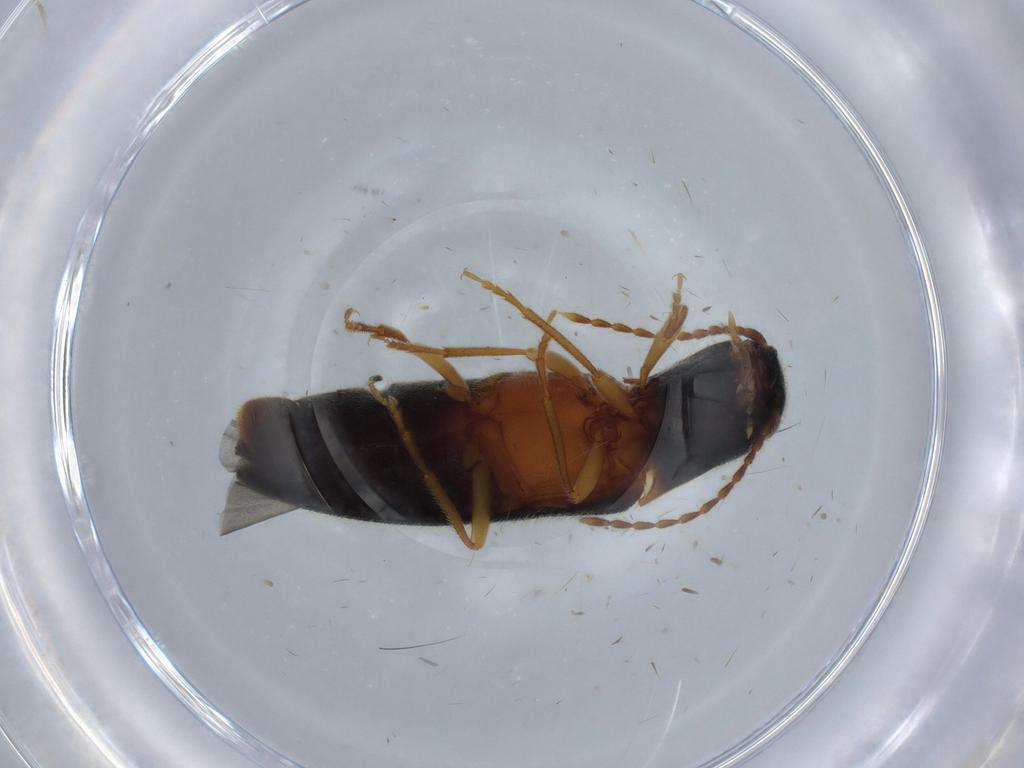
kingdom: Animalia
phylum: Arthropoda
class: Insecta
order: Coleoptera
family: Elateridae
